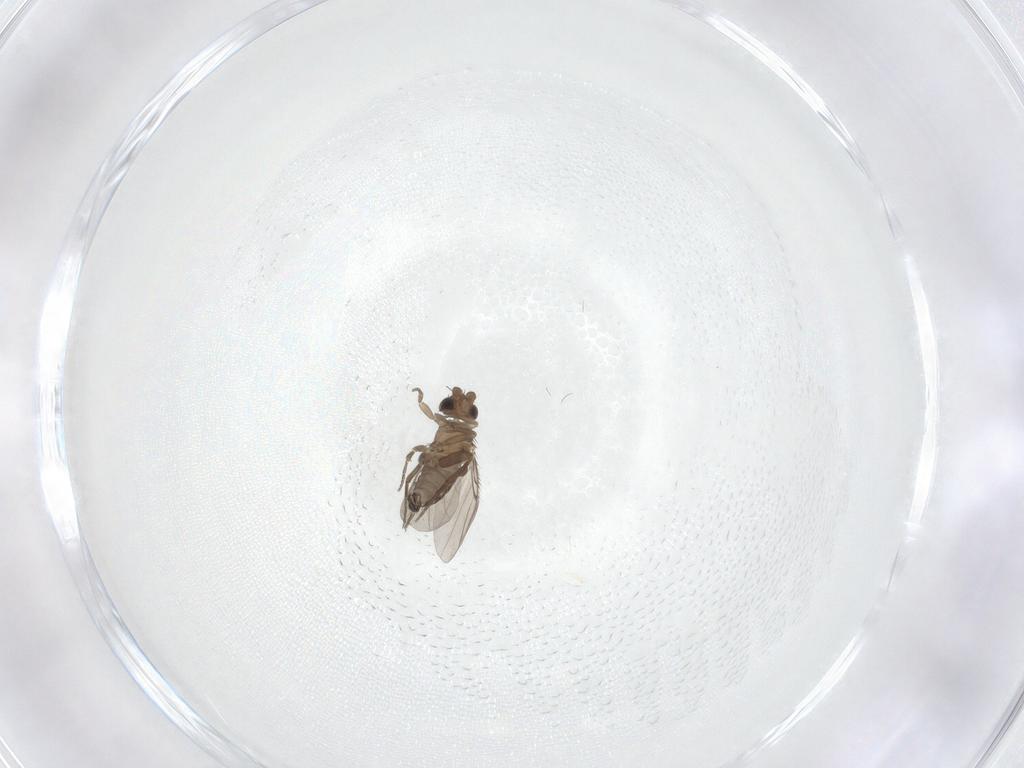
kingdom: Animalia
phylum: Arthropoda
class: Insecta
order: Diptera
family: Phoridae
